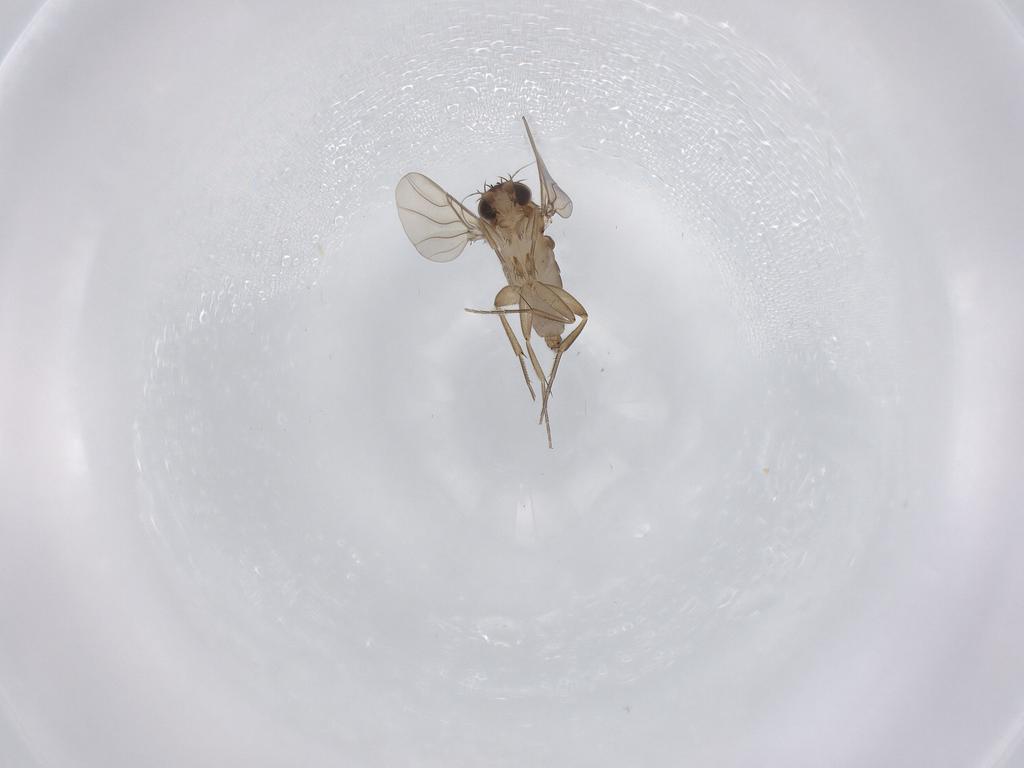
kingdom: Animalia
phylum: Arthropoda
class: Insecta
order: Diptera
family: Phoridae
